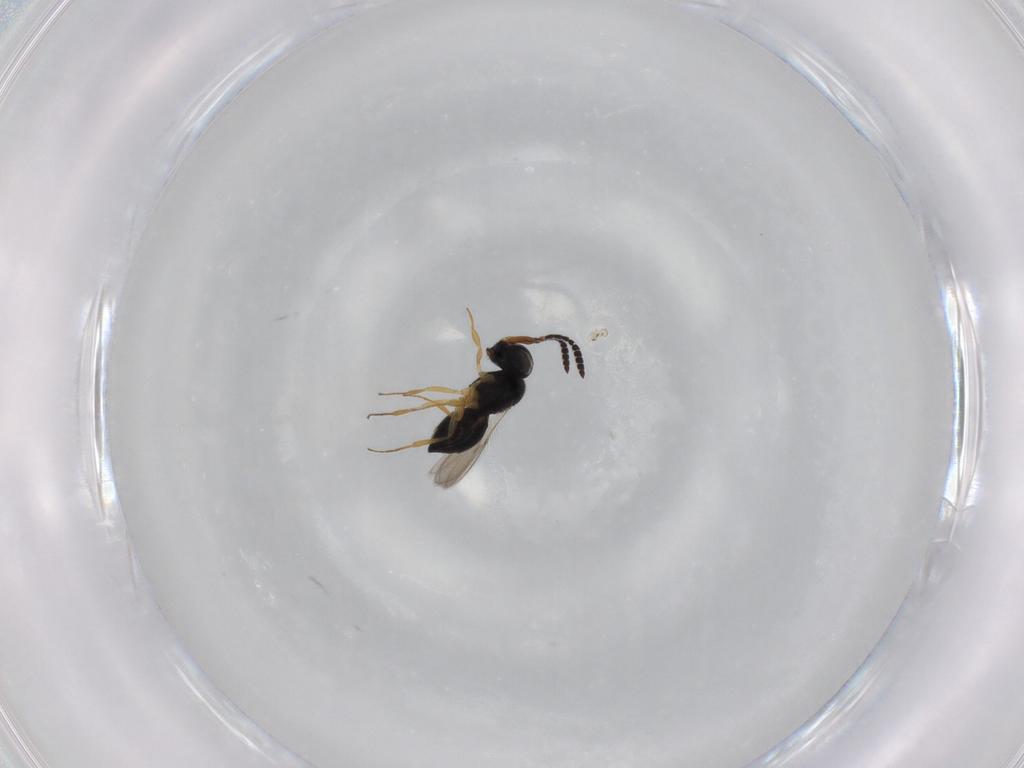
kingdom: Animalia
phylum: Arthropoda
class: Insecta
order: Hymenoptera
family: Scelionidae
